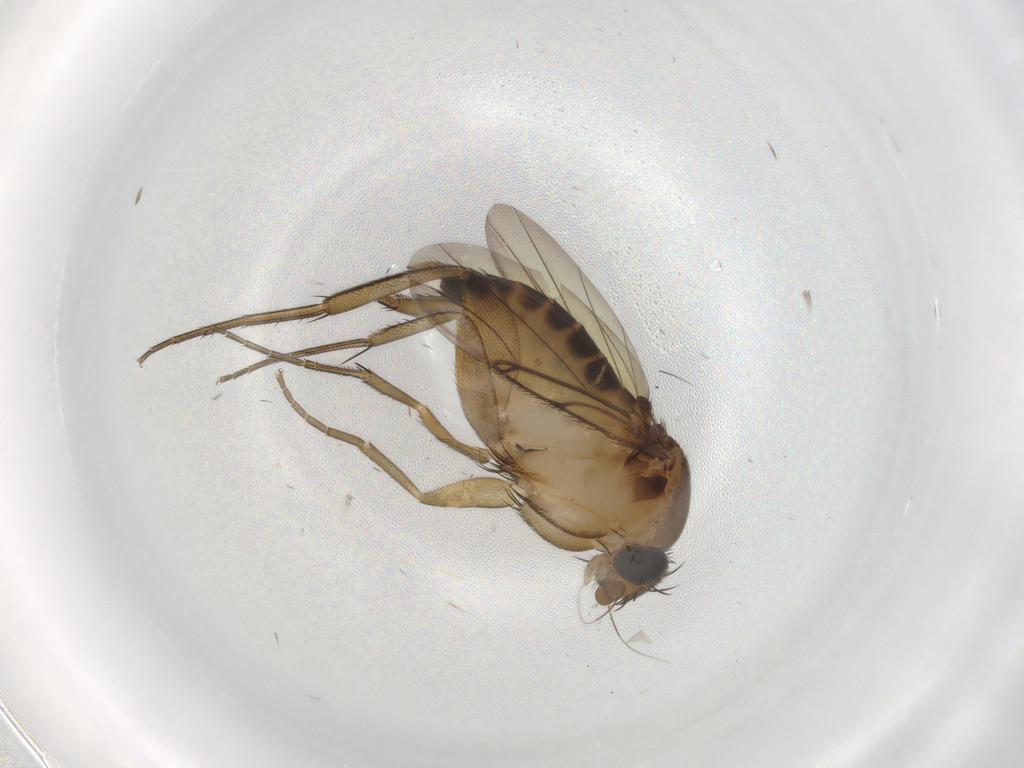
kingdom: Animalia
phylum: Arthropoda
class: Insecta
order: Diptera
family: Phoridae
